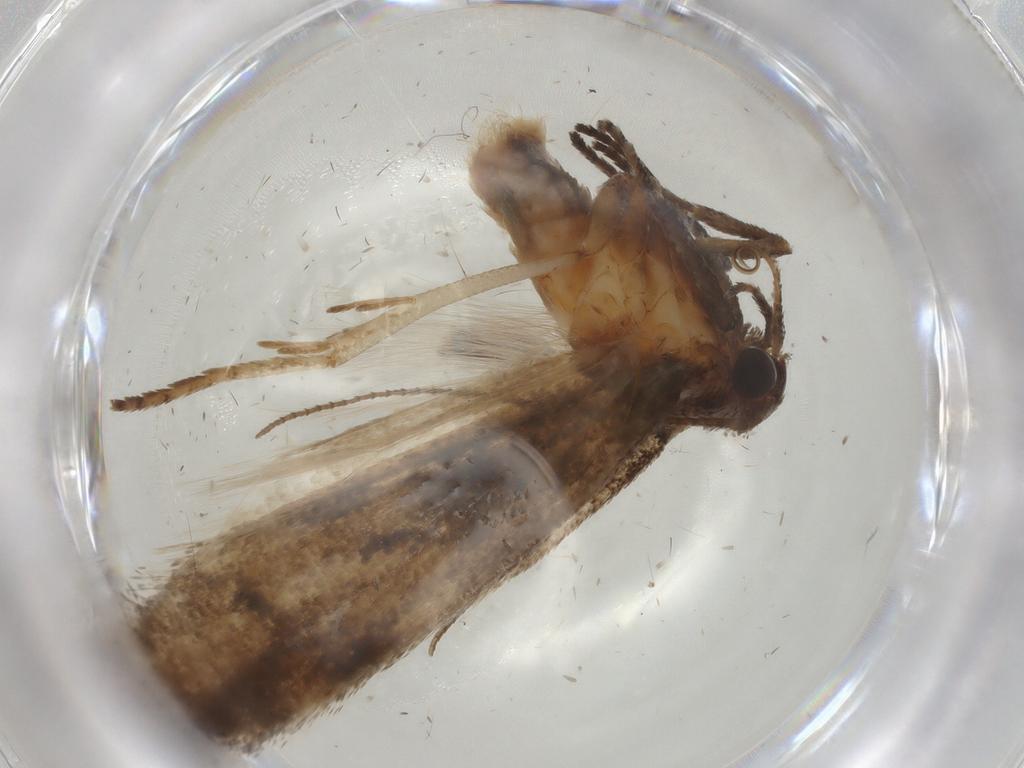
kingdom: Animalia
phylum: Arthropoda
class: Insecta
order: Lepidoptera
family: Cosmopterigidae
